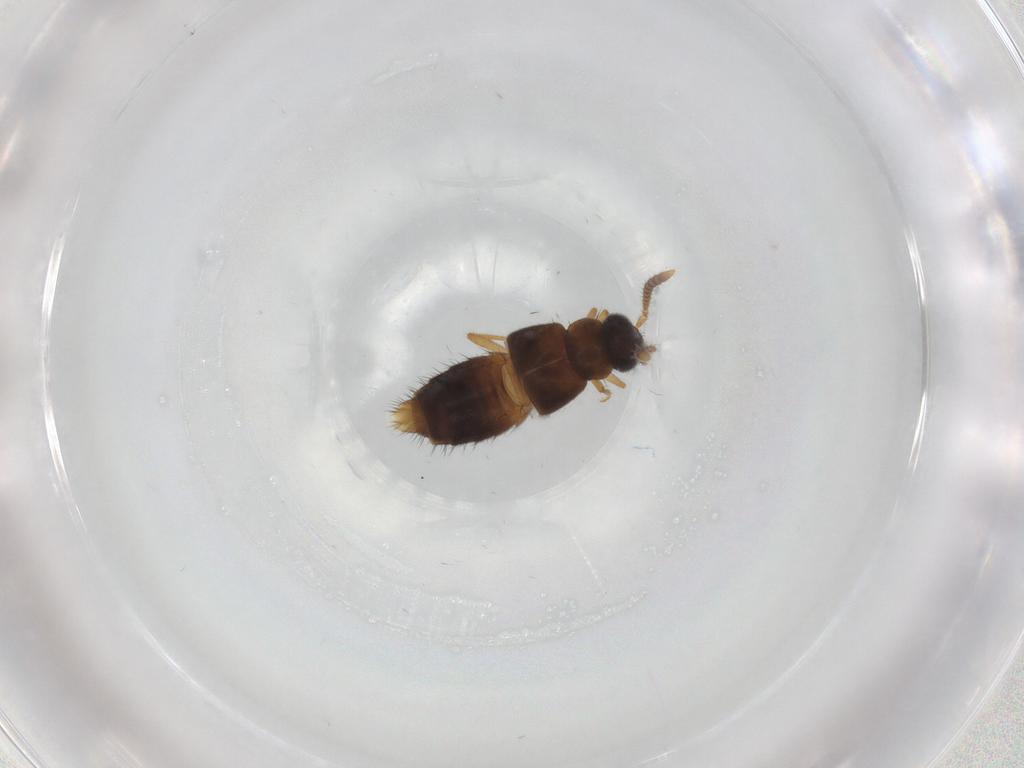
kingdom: Animalia
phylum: Arthropoda
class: Insecta
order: Coleoptera
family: Staphylinidae
